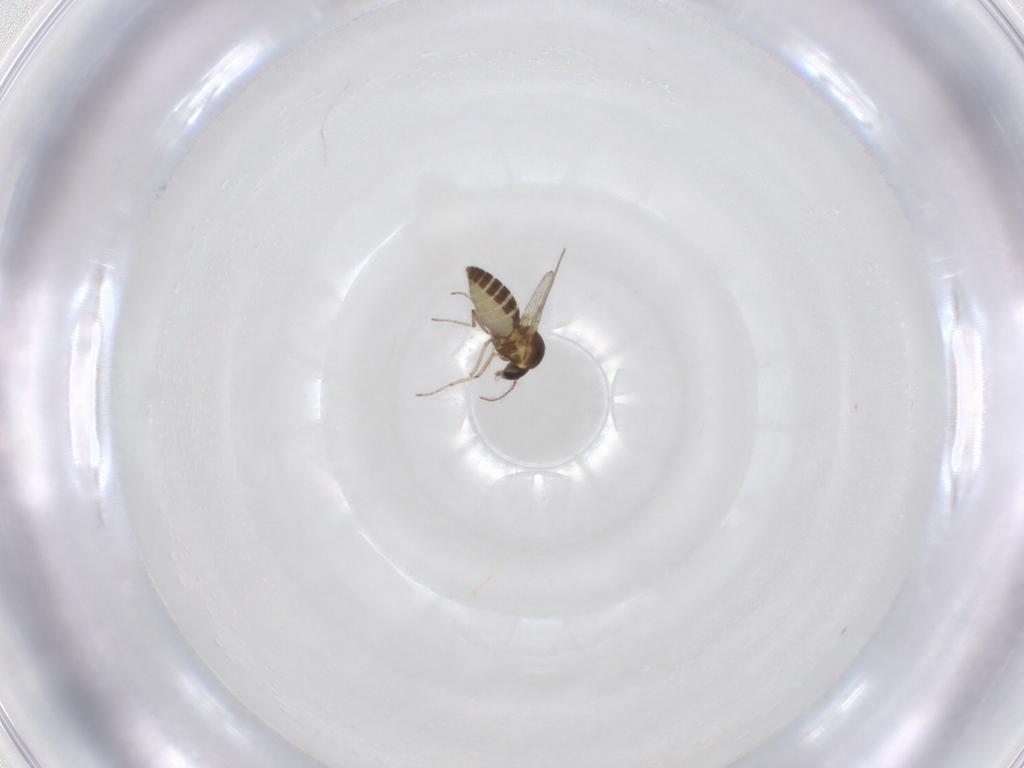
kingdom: Animalia
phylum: Arthropoda
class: Insecta
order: Diptera
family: Ceratopogonidae
